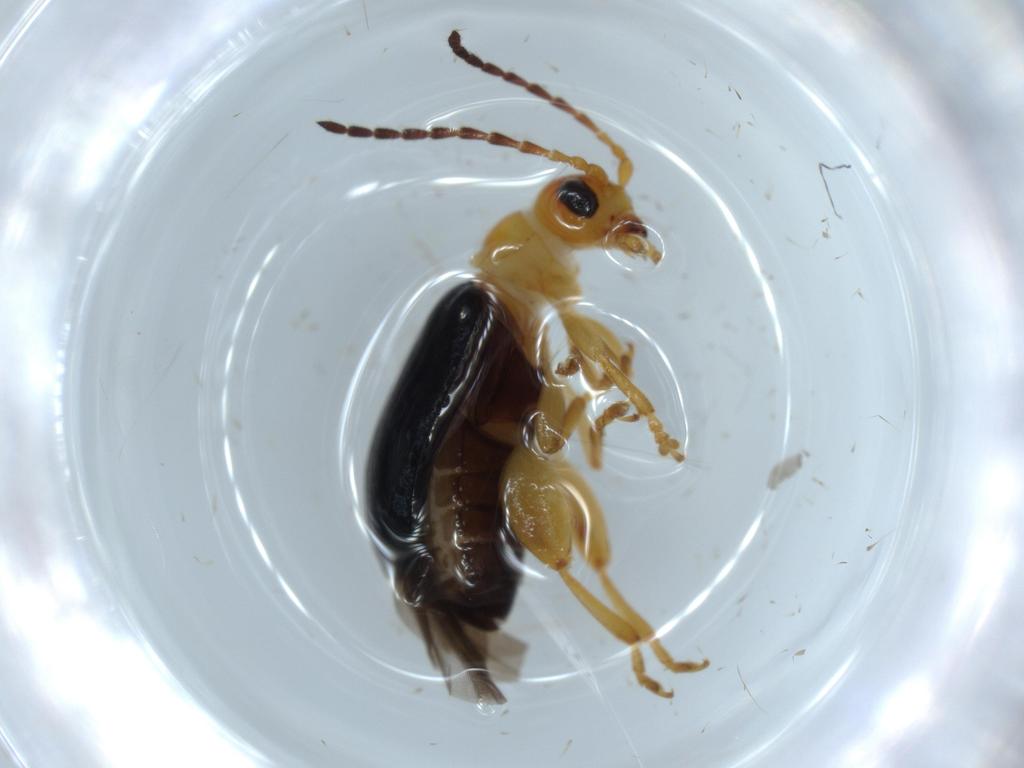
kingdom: Animalia
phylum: Arthropoda
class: Insecta
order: Coleoptera
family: Chrysomelidae
